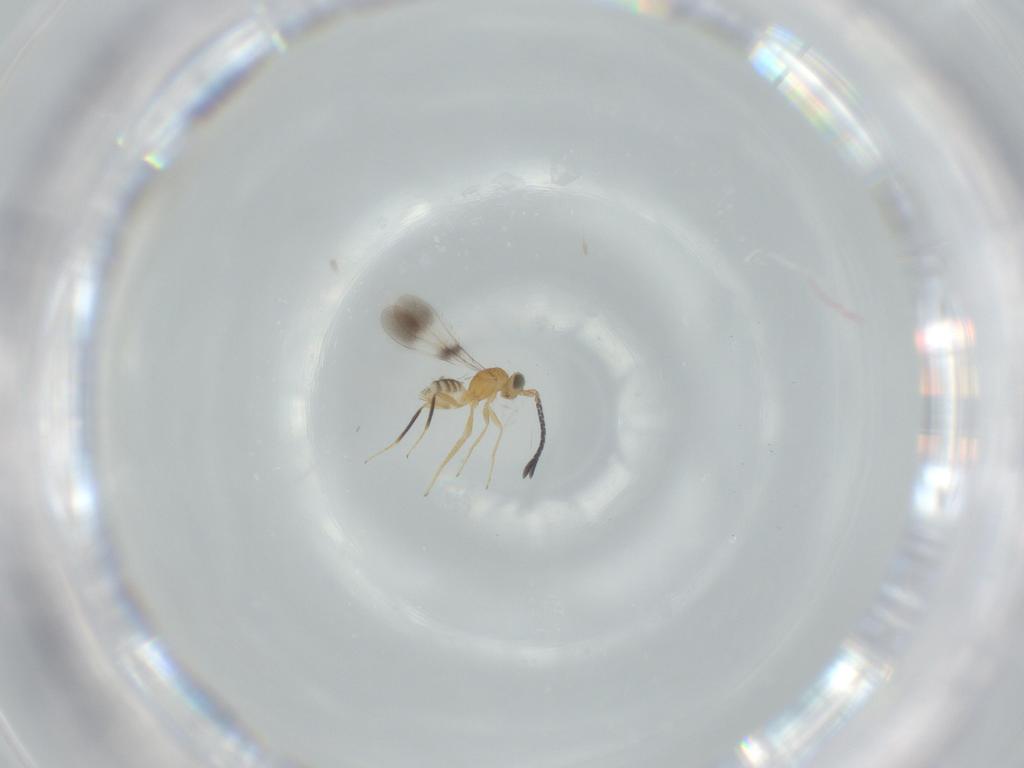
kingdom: Animalia
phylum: Arthropoda
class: Insecta
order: Hymenoptera
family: Mymaridae
